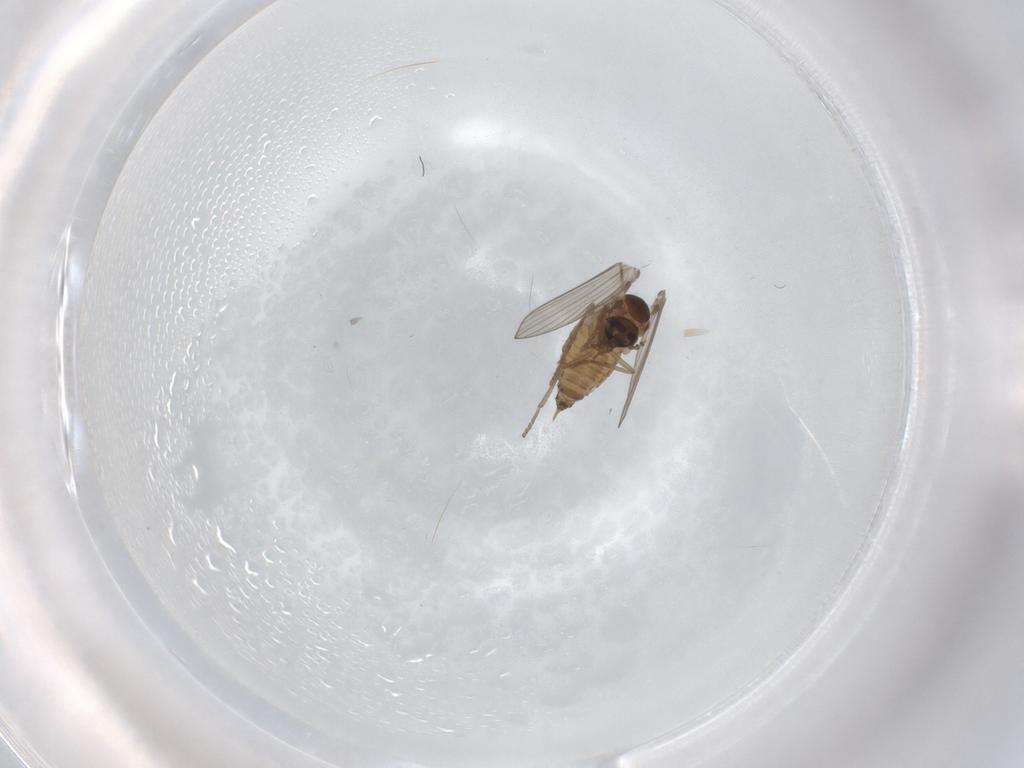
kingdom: Animalia
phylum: Arthropoda
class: Insecta
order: Diptera
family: Psychodidae
